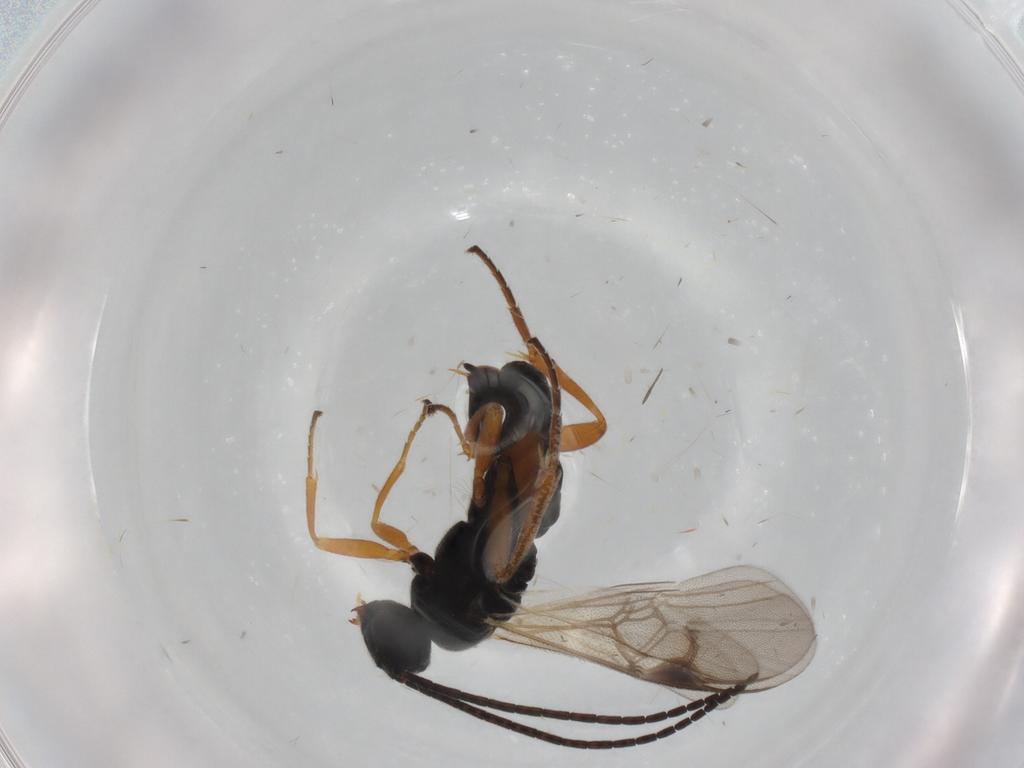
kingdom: Animalia
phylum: Arthropoda
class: Insecta
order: Hymenoptera
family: Braconidae
